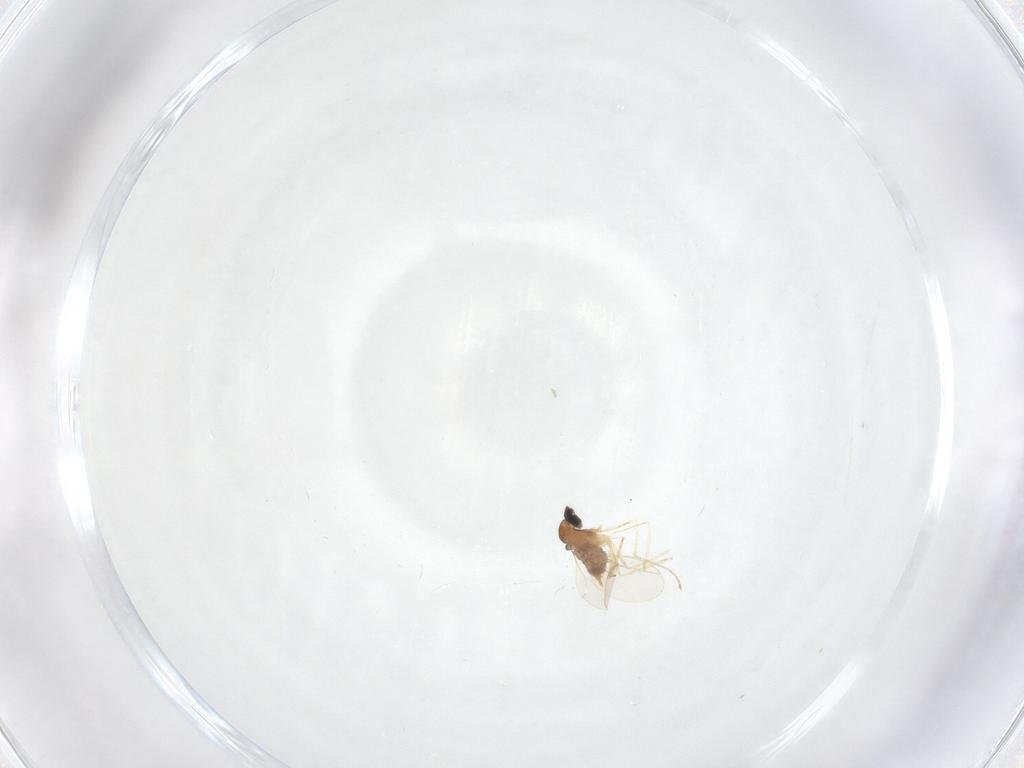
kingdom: Animalia
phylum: Arthropoda
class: Insecta
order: Diptera
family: Cecidomyiidae
